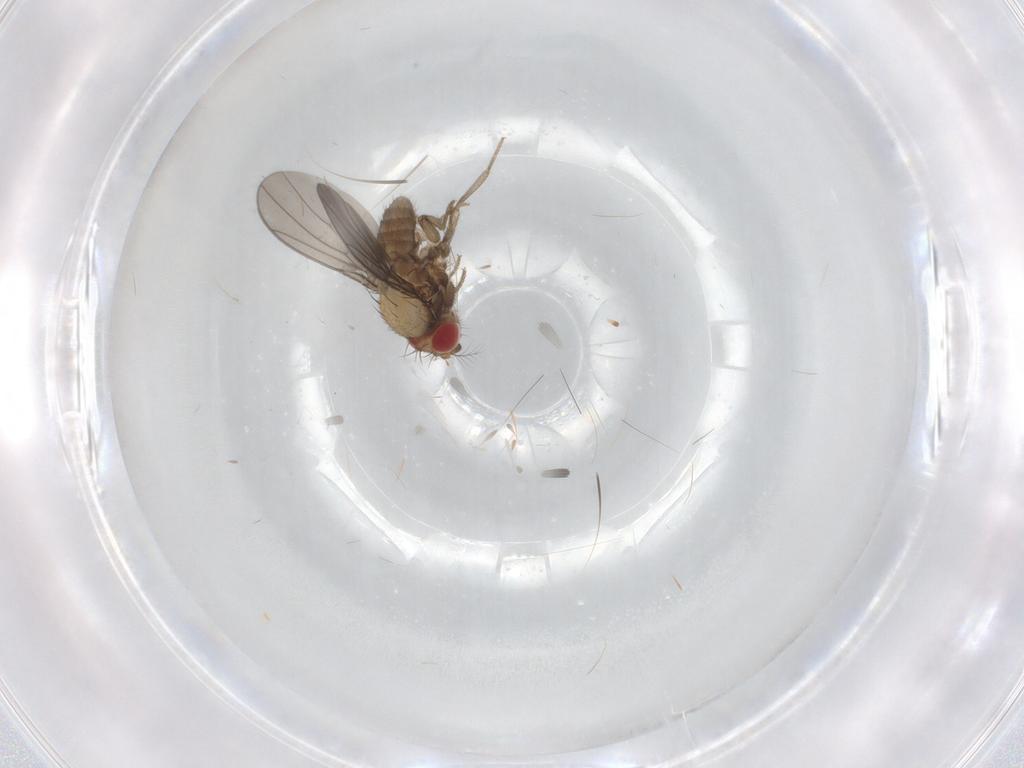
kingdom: Animalia
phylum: Arthropoda
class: Insecta
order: Diptera
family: Drosophilidae
